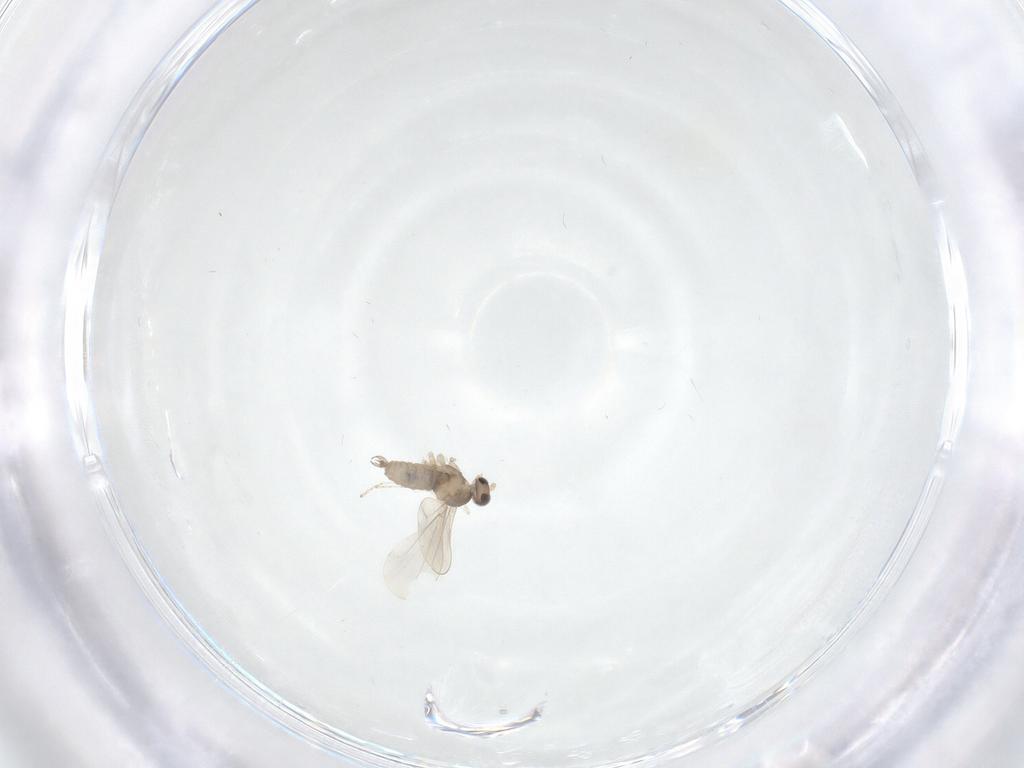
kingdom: Animalia
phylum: Arthropoda
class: Insecta
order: Diptera
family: Cecidomyiidae
